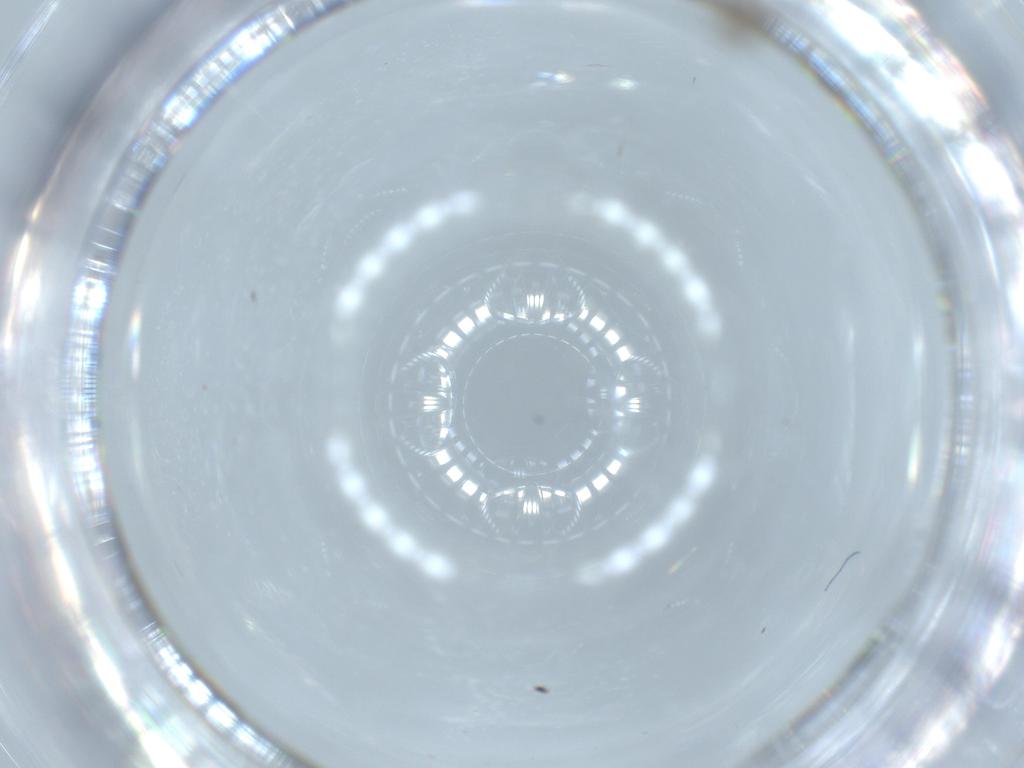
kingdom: Animalia
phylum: Arthropoda
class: Insecta
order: Diptera
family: Cecidomyiidae
